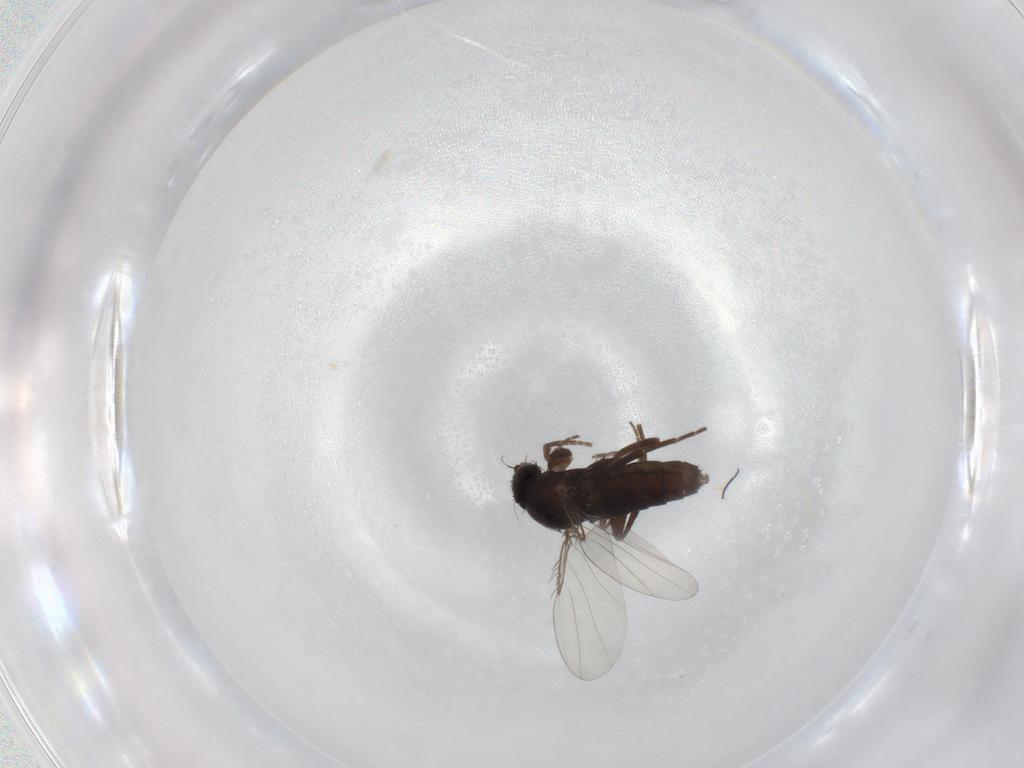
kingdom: Animalia
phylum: Arthropoda
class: Insecta
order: Diptera
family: Phoridae
